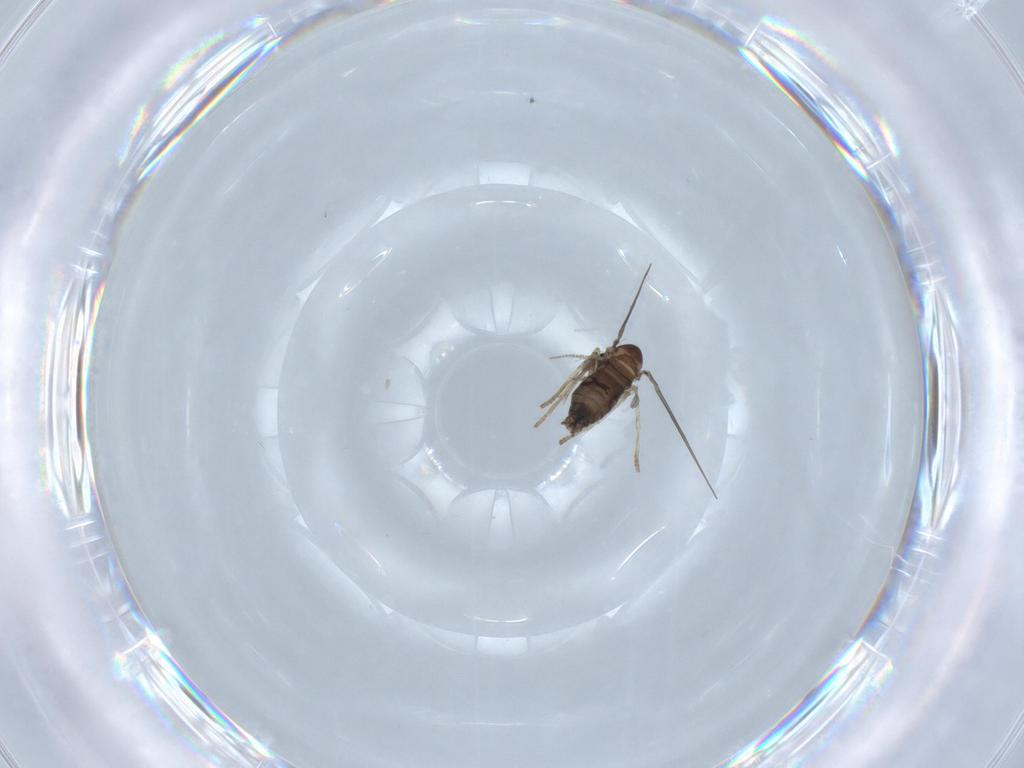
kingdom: Animalia
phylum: Arthropoda
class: Insecta
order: Diptera
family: Psychodidae
